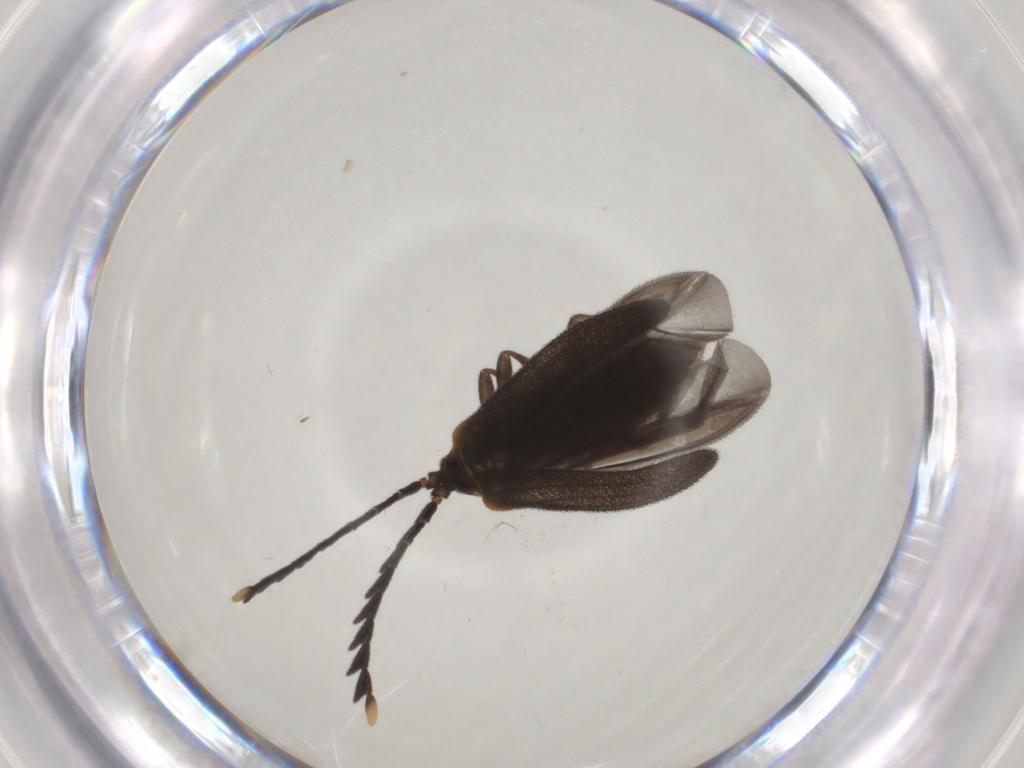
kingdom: Animalia
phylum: Arthropoda
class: Insecta
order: Coleoptera
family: Lycidae
